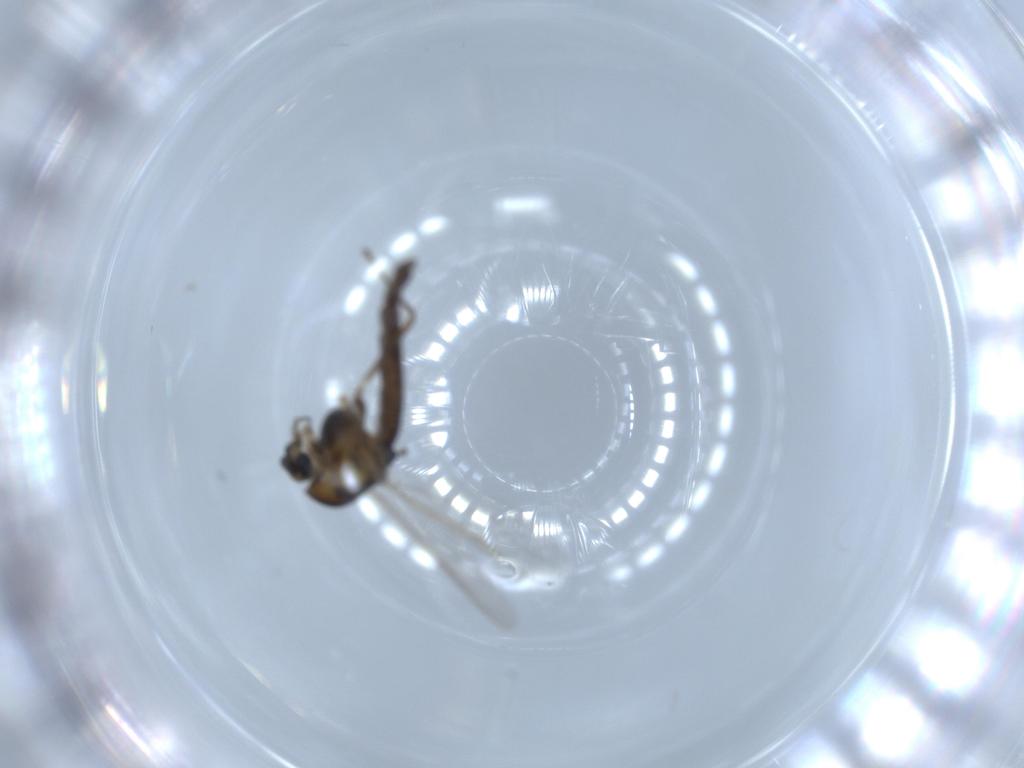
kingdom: Animalia
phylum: Arthropoda
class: Insecta
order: Diptera
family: Chironomidae
